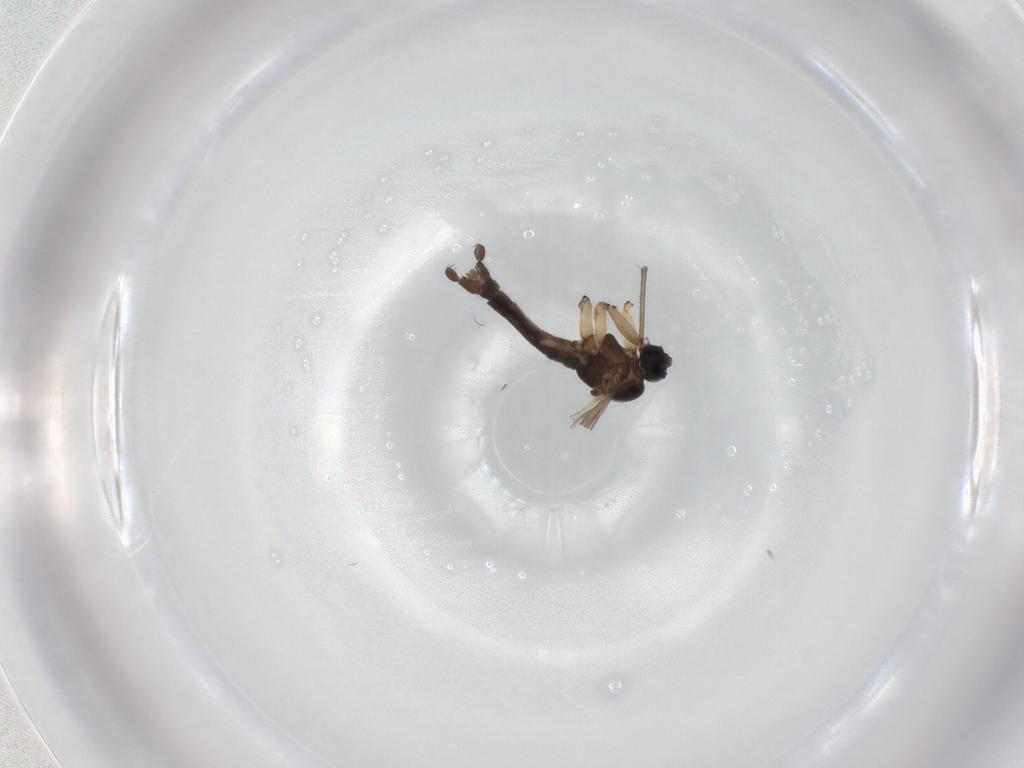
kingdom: Animalia
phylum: Arthropoda
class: Insecta
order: Diptera
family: Sciaridae
